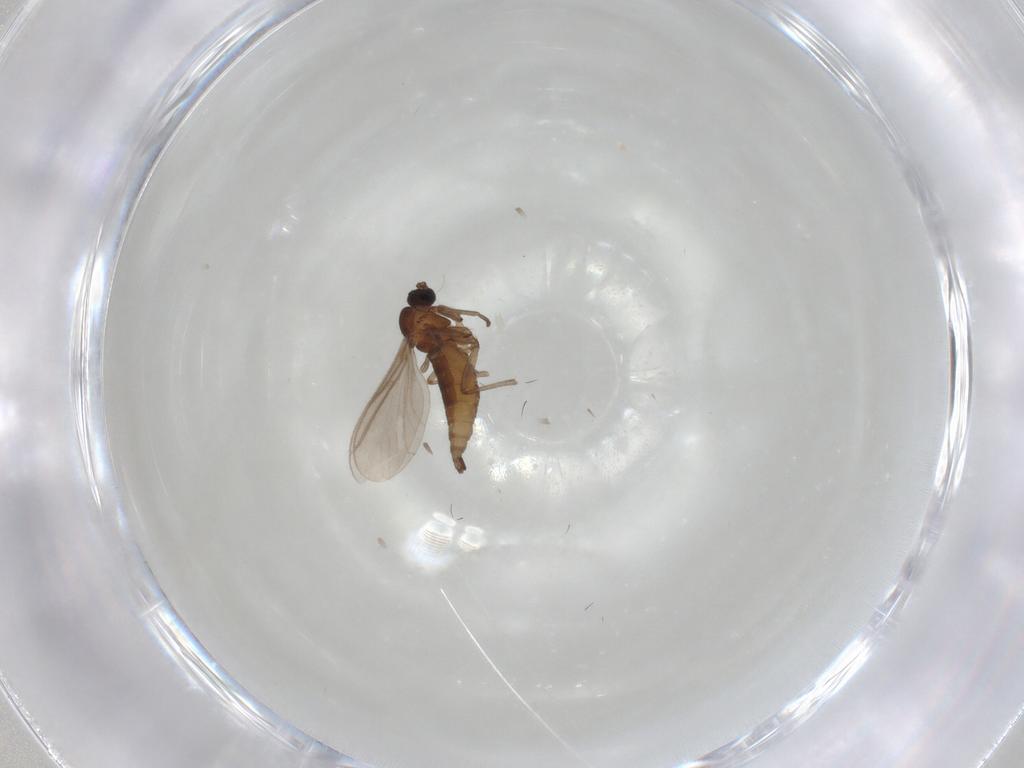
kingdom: Animalia
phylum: Arthropoda
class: Insecta
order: Diptera
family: Sciaridae
